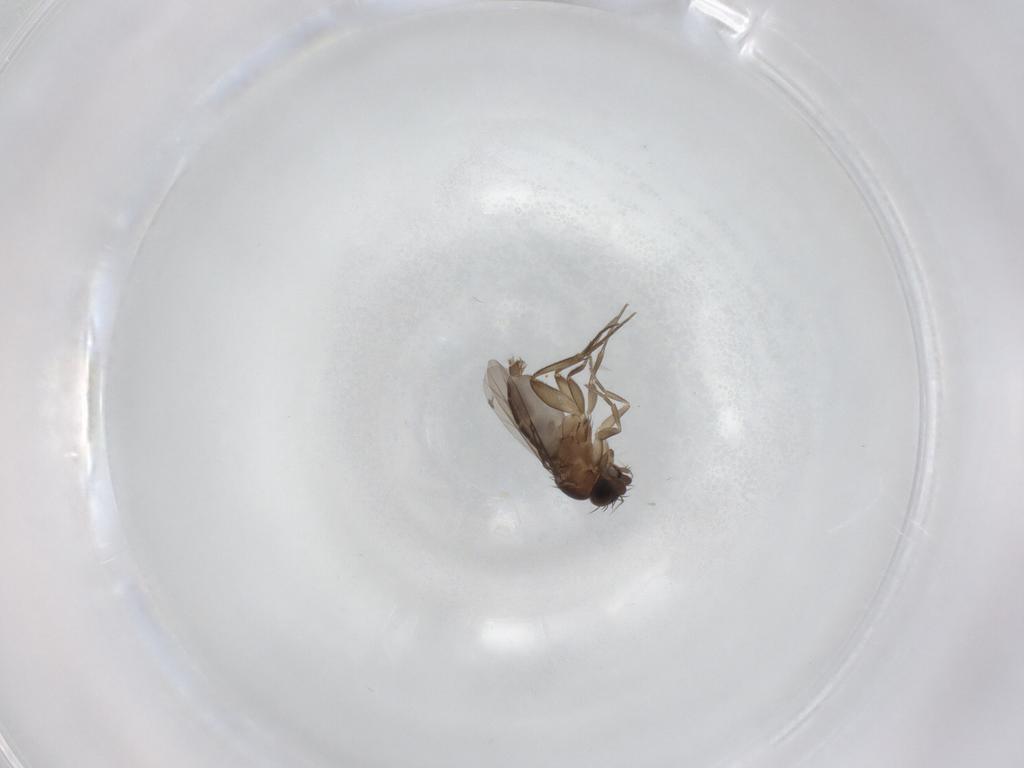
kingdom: Animalia
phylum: Arthropoda
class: Insecta
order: Diptera
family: Phoridae
